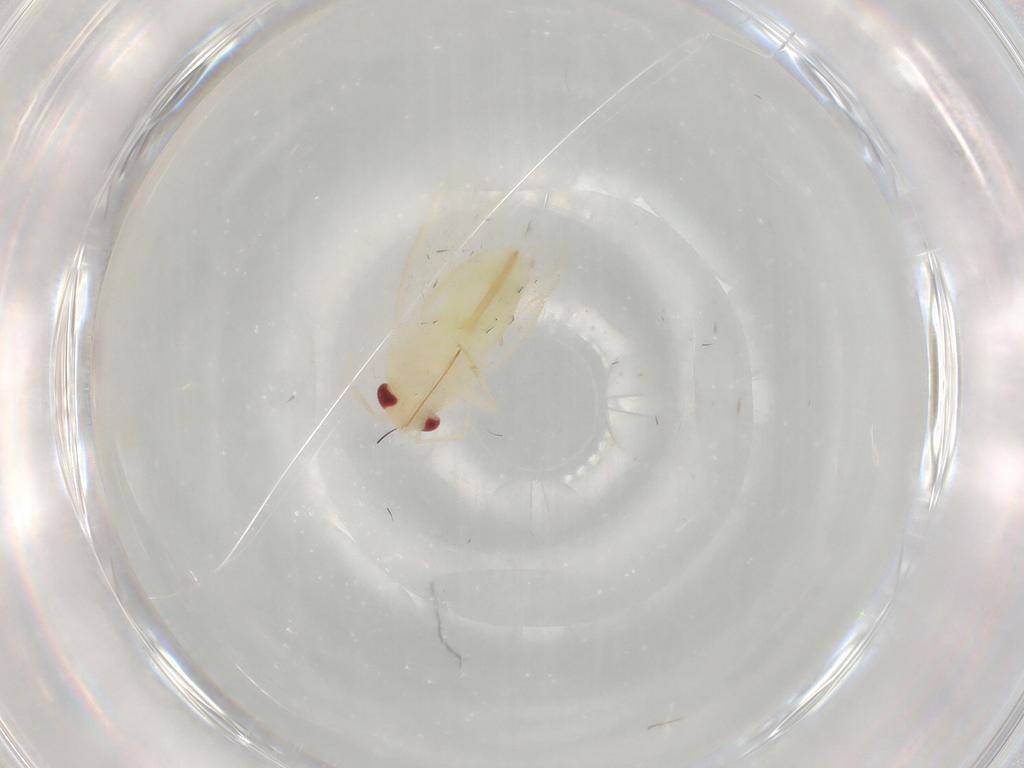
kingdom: Animalia
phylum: Arthropoda
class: Insecta
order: Hemiptera
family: Miridae
